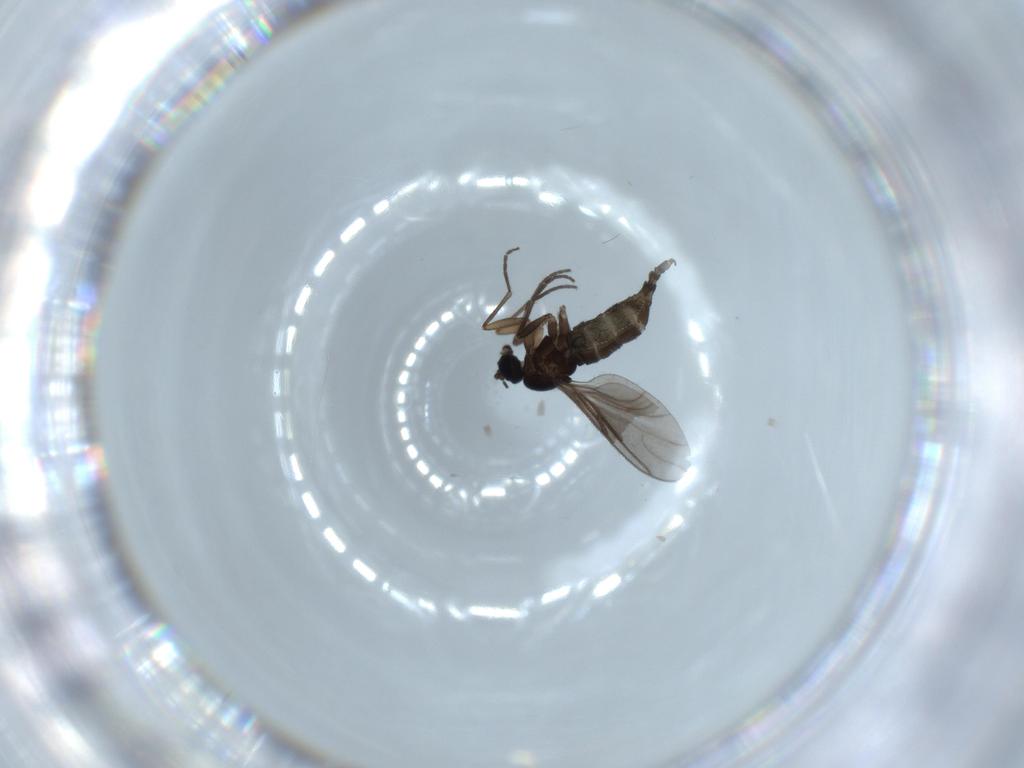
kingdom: Animalia
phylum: Arthropoda
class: Insecta
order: Diptera
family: Sciaridae
